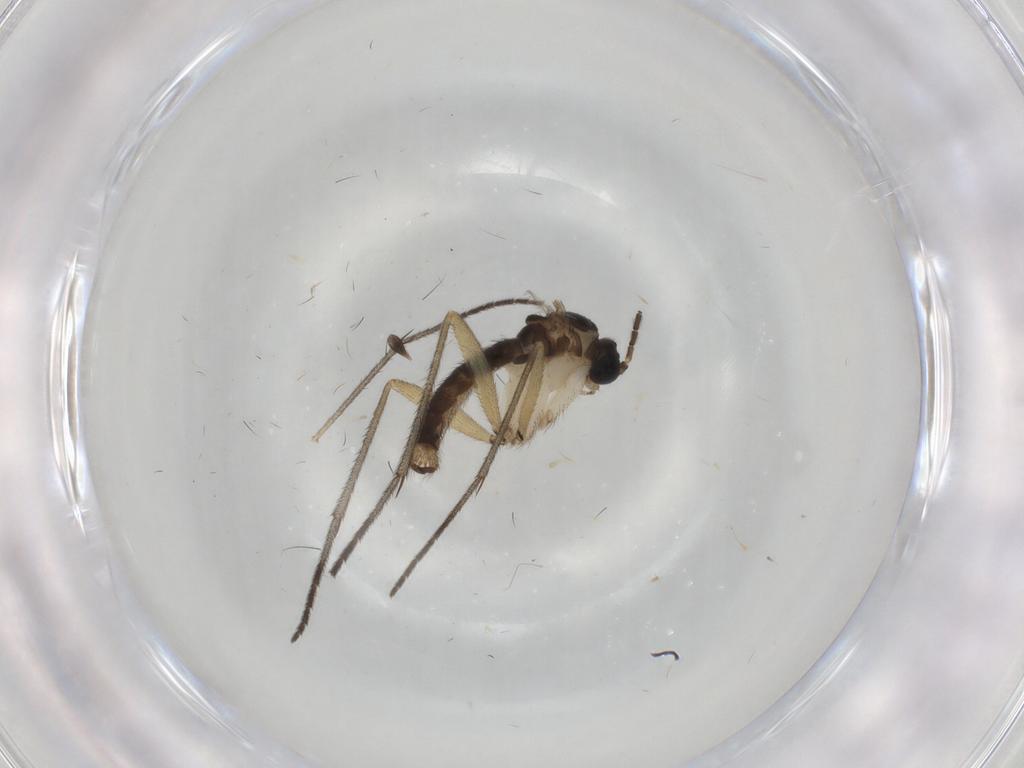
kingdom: Animalia
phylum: Arthropoda
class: Insecta
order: Diptera
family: Sciaridae
